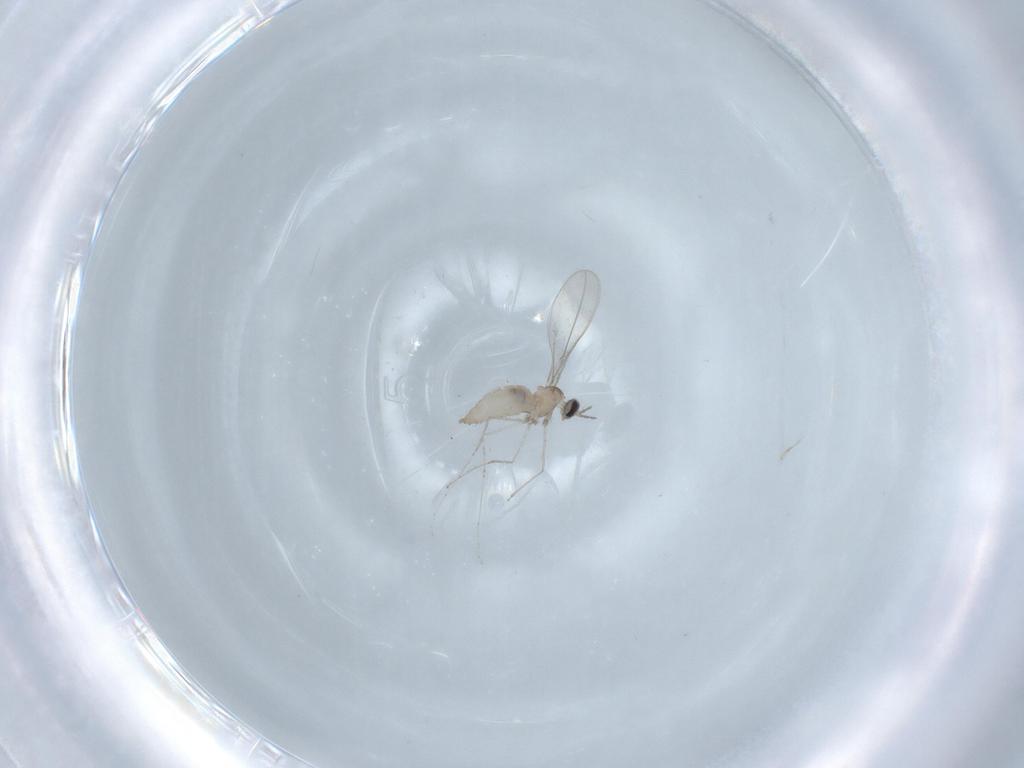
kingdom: Animalia
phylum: Arthropoda
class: Insecta
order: Diptera
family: Cecidomyiidae
